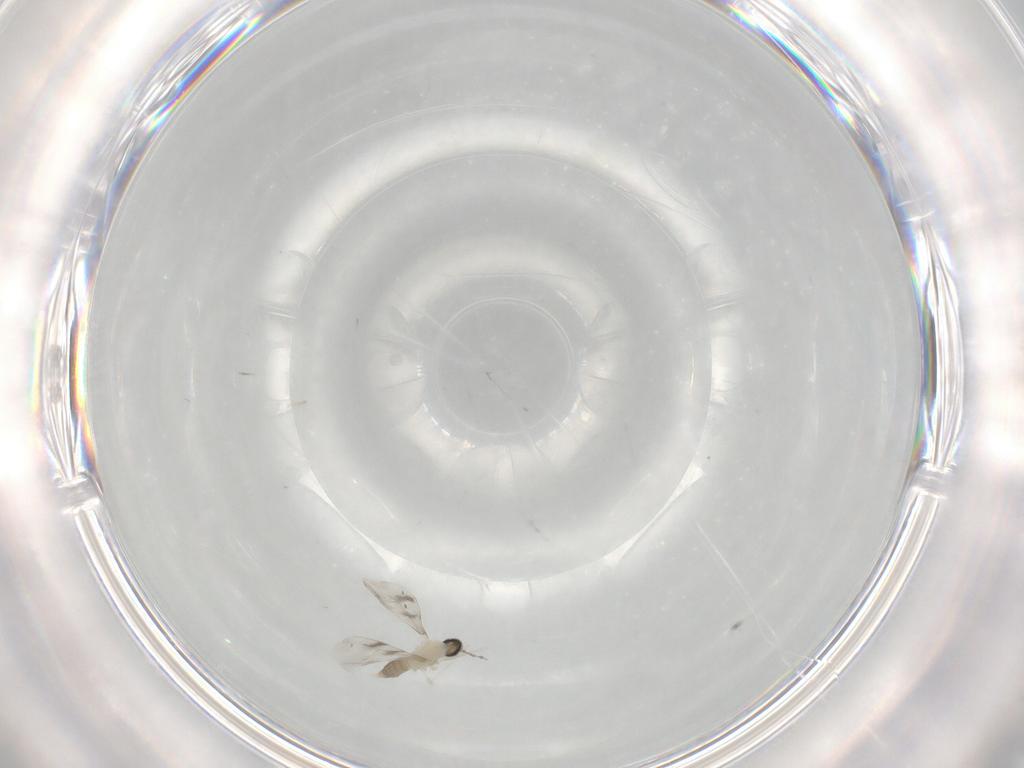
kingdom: Animalia
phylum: Arthropoda
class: Insecta
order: Diptera
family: Cecidomyiidae
